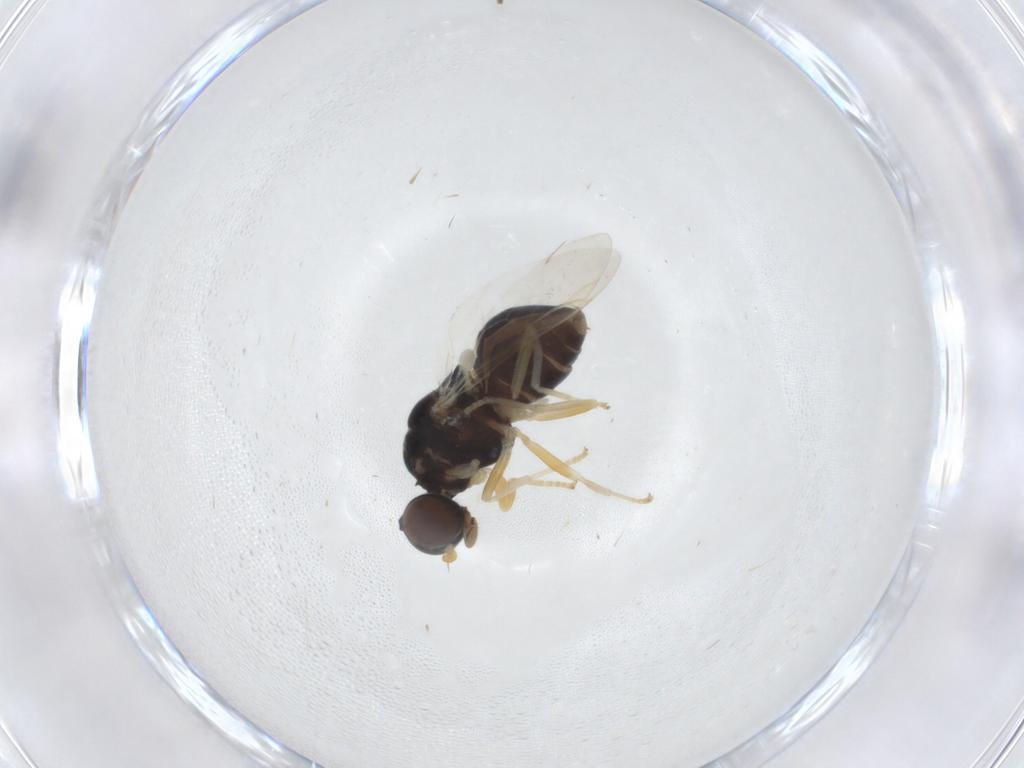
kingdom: Animalia
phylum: Arthropoda
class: Insecta
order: Diptera
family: Stratiomyidae
